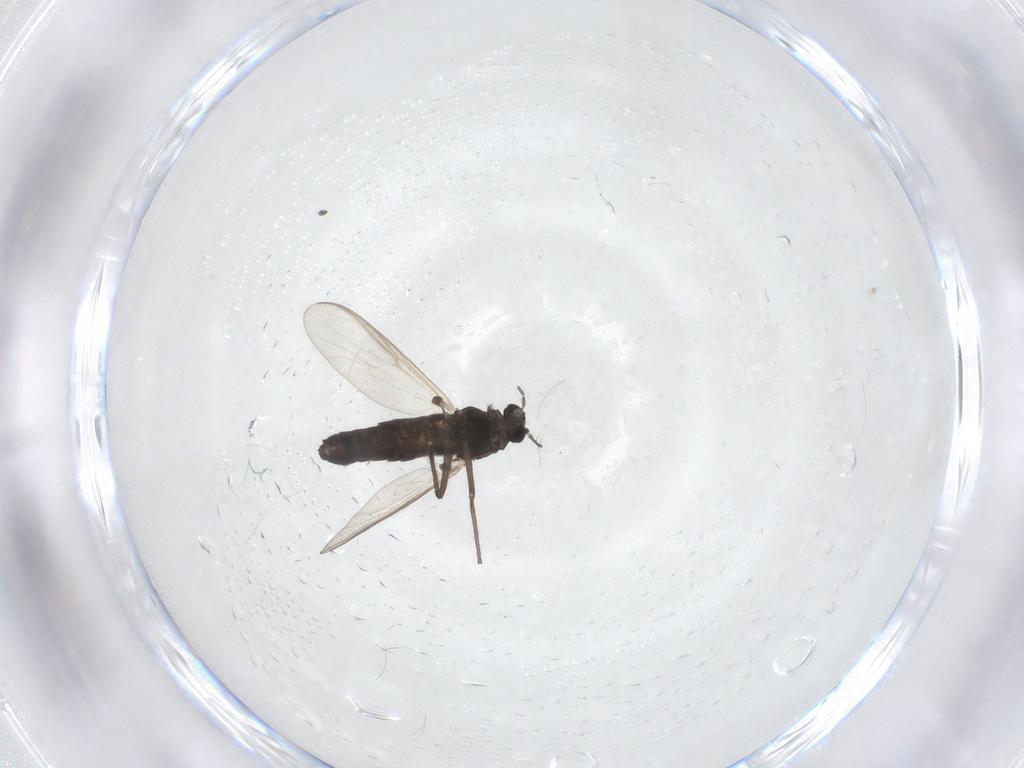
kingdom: Animalia
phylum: Arthropoda
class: Insecta
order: Diptera
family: Chironomidae
